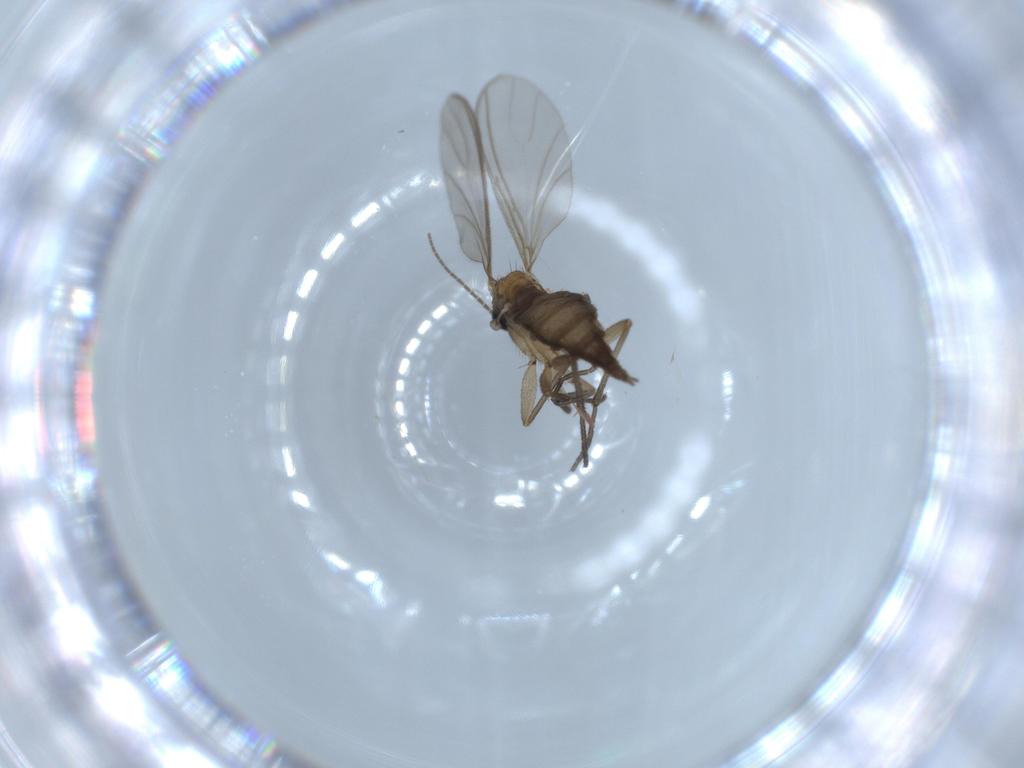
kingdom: Animalia
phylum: Arthropoda
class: Insecta
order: Diptera
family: Sciaridae
